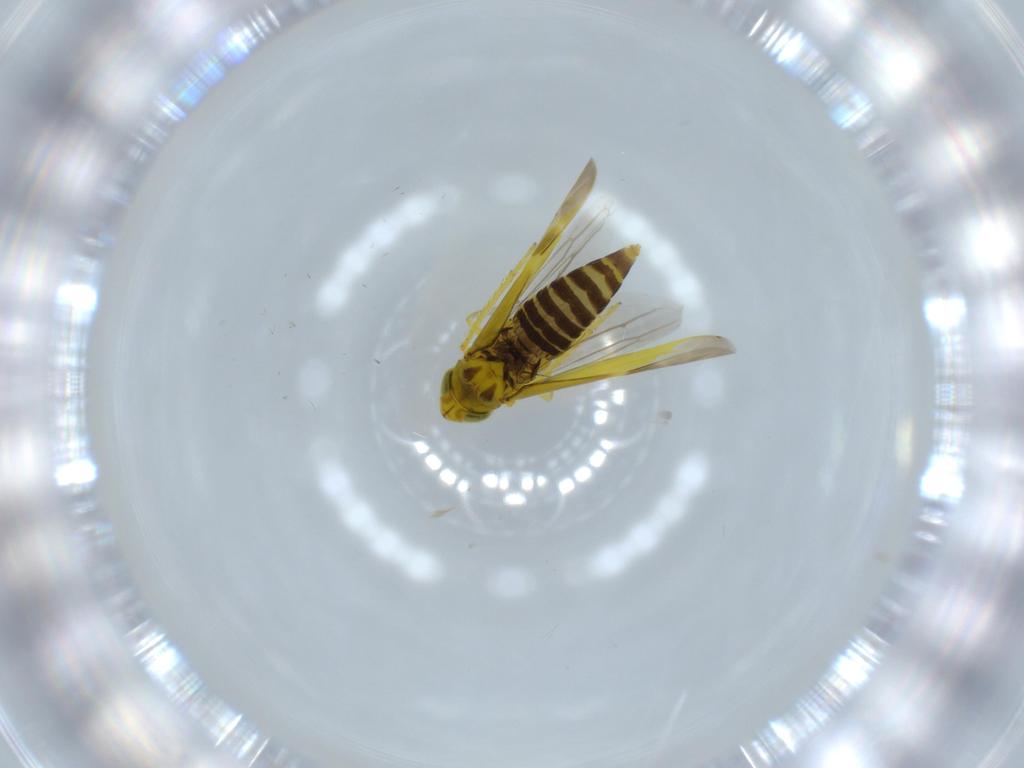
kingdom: Animalia
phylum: Arthropoda
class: Insecta
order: Hemiptera
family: Cicadellidae
